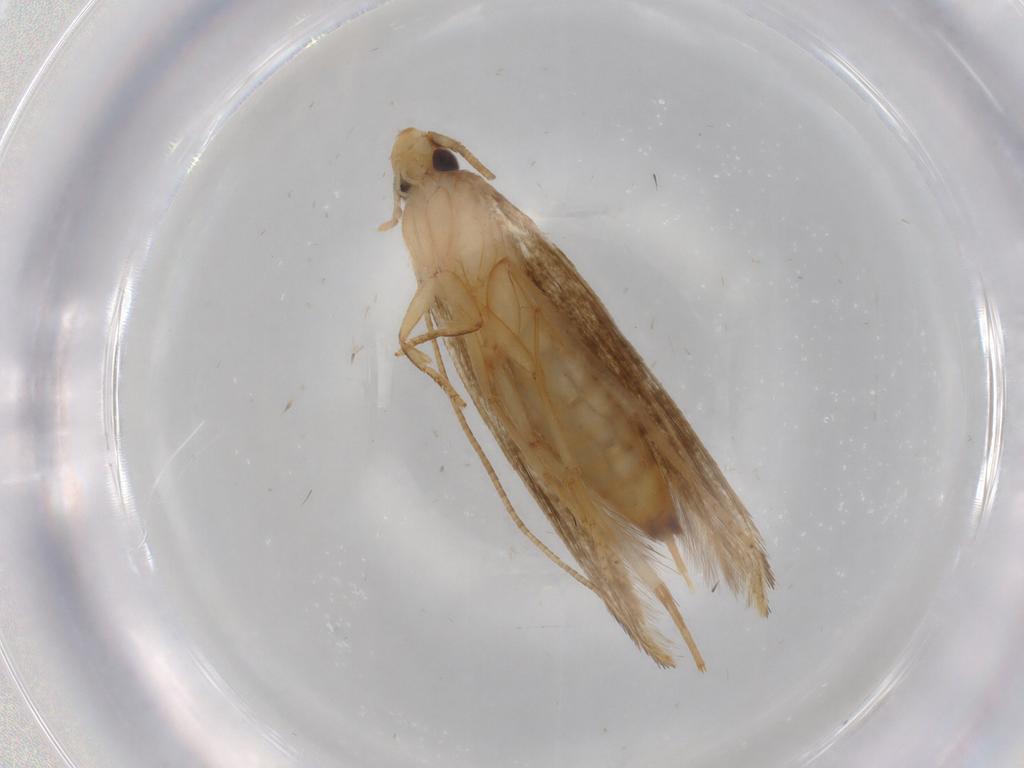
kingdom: Animalia
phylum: Arthropoda
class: Insecta
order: Lepidoptera
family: Tineidae
